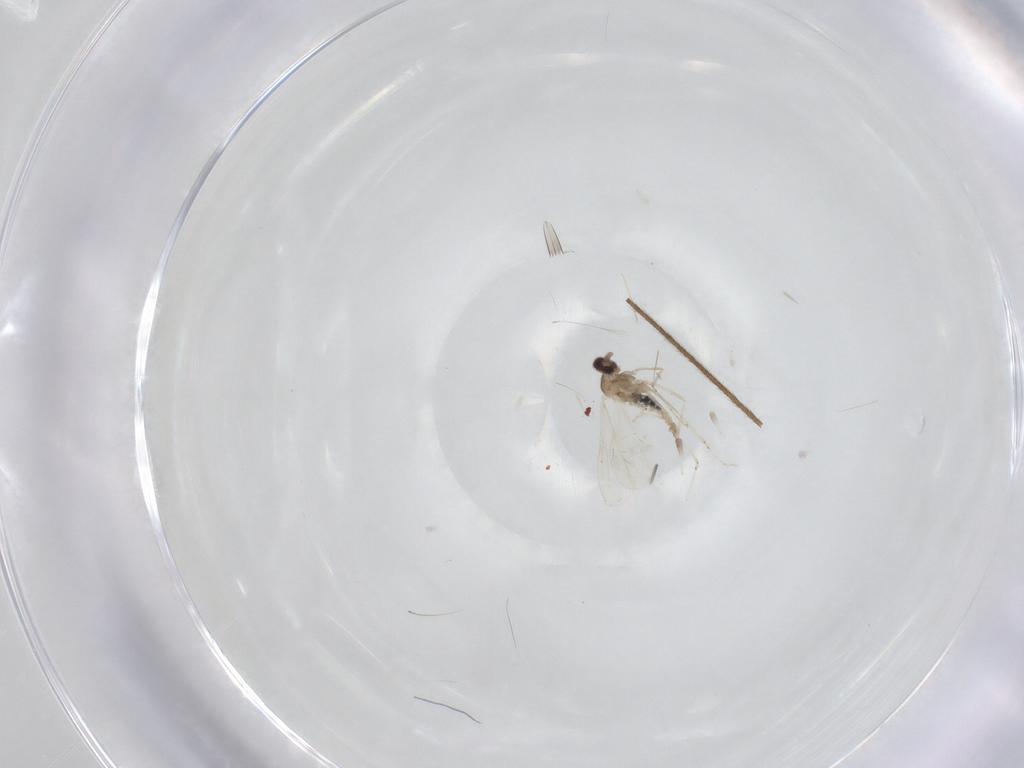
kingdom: Animalia
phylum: Arthropoda
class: Insecta
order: Diptera
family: Limoniidae
